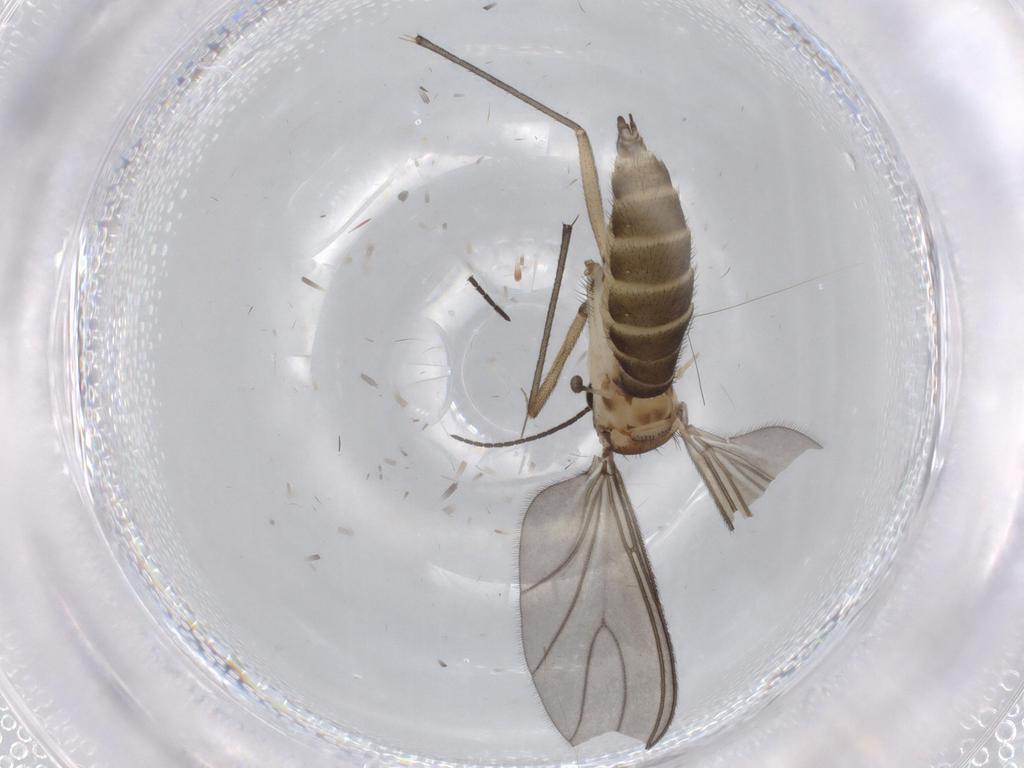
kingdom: Animalia
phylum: Arthropoda
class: Insecta
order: Diptera
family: Sciaridae
